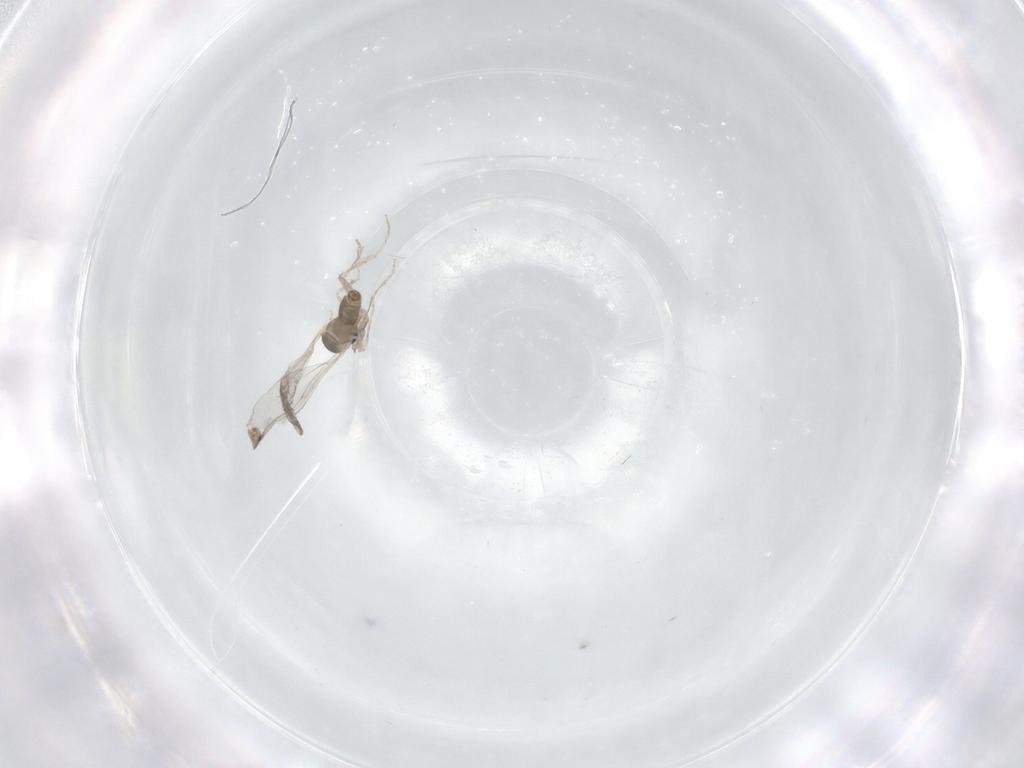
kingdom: Animalia
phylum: Arthropoda
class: Insecta
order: Diptera
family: Cecidomyiidae
